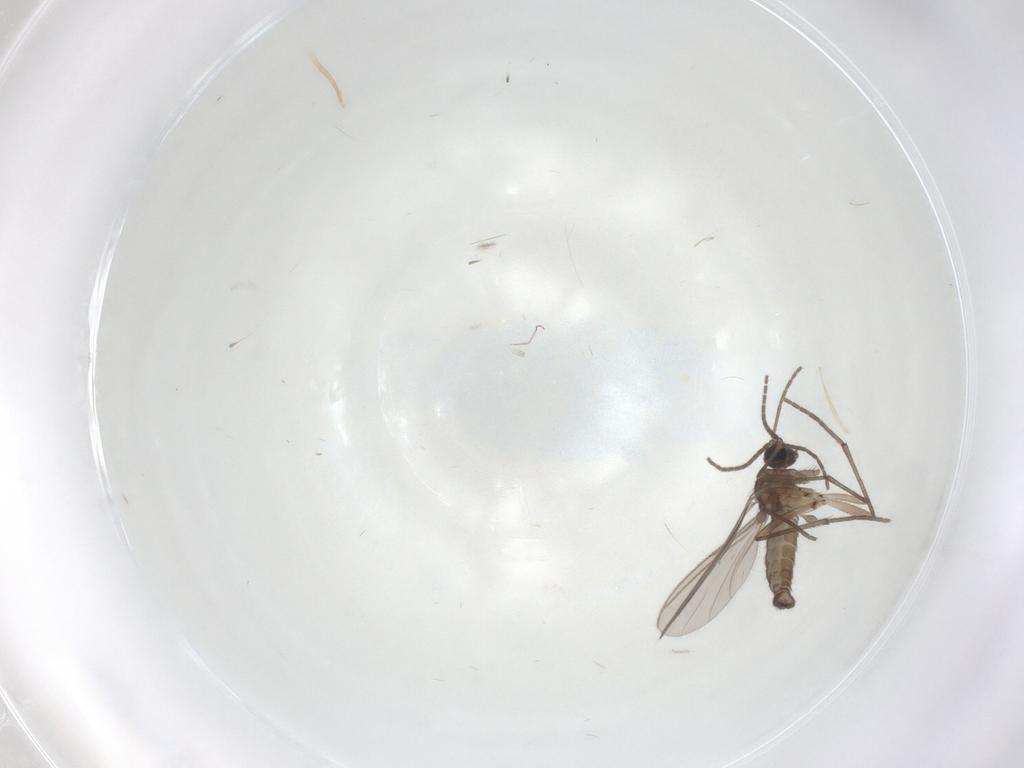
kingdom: Animalia
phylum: Arthropoda
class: Insecta
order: Diptera
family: Sciaridae
